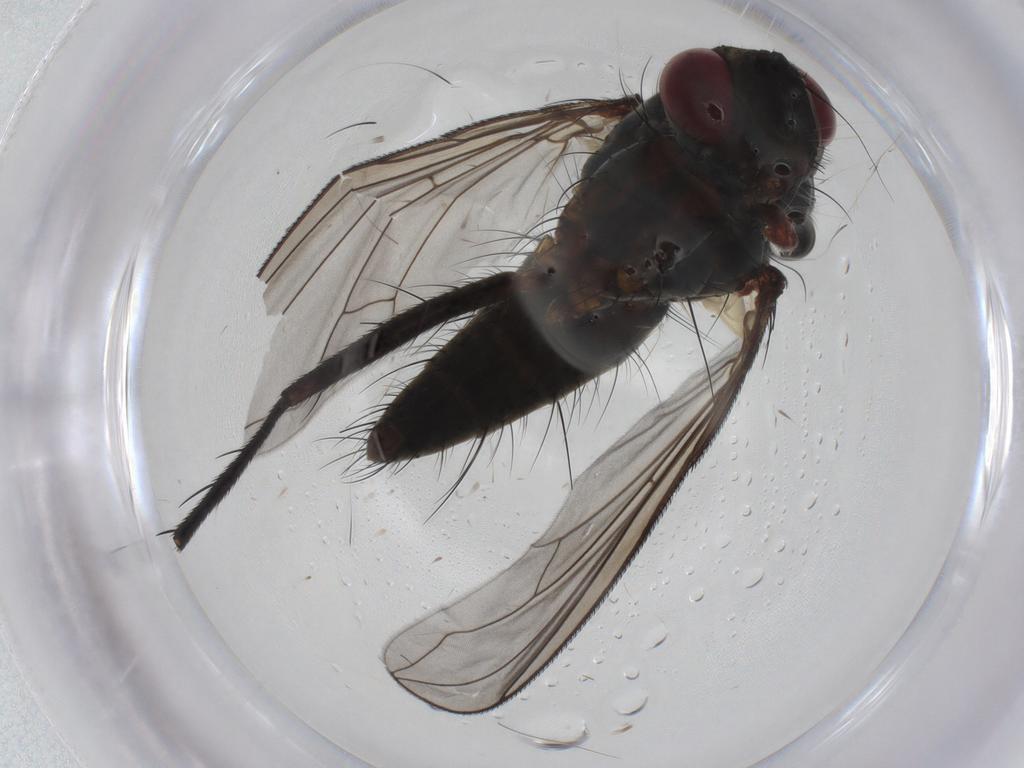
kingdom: Animalia
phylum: Arthropoda
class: Insecta
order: Diptera
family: Tachinidae
